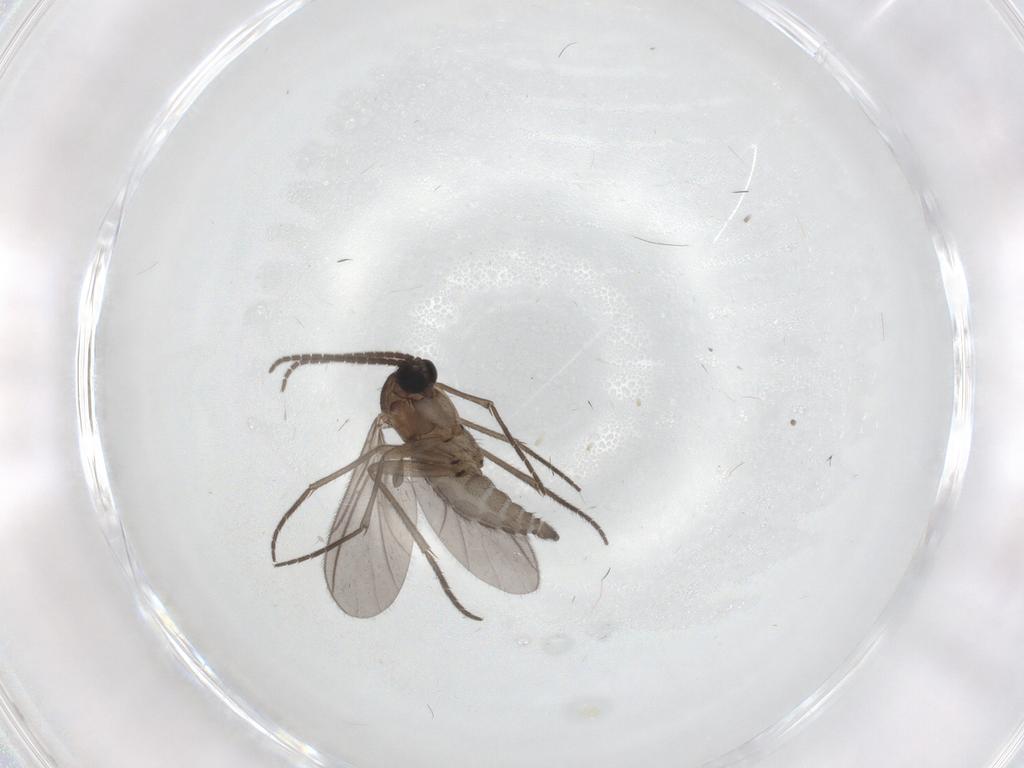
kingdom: Animalia
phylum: Arthropoda
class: Insecta
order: Diptera
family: Sciaridae
